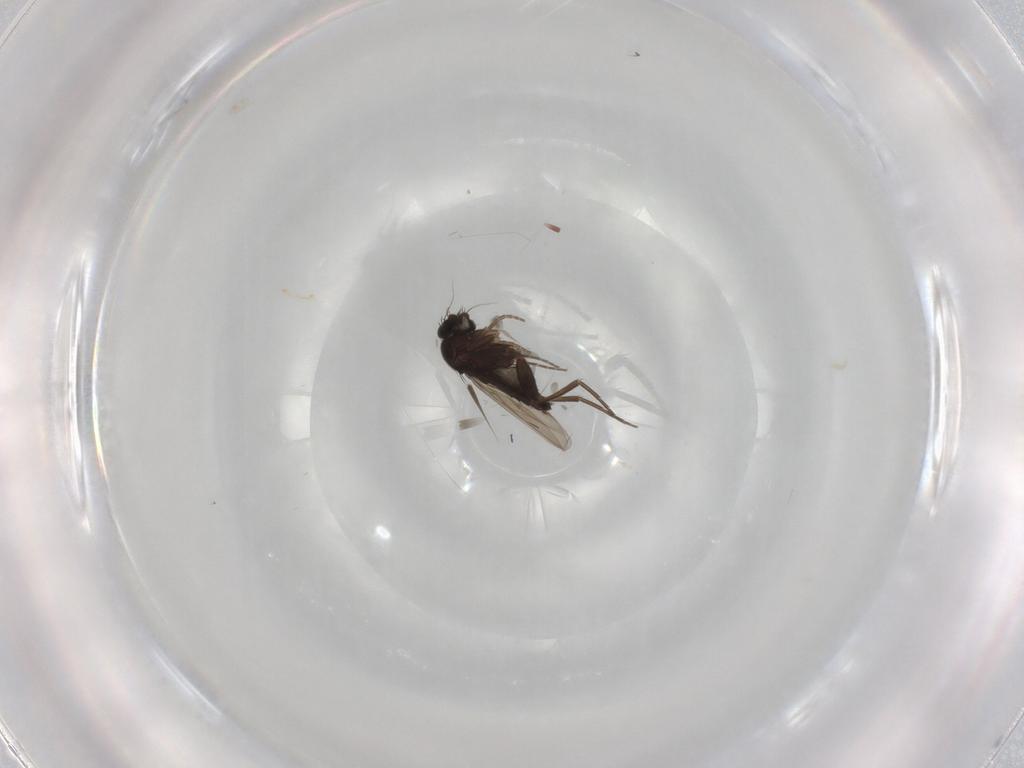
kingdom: Animalia
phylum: Arthropoda
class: Insecta
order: Diptera
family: Phoridae
